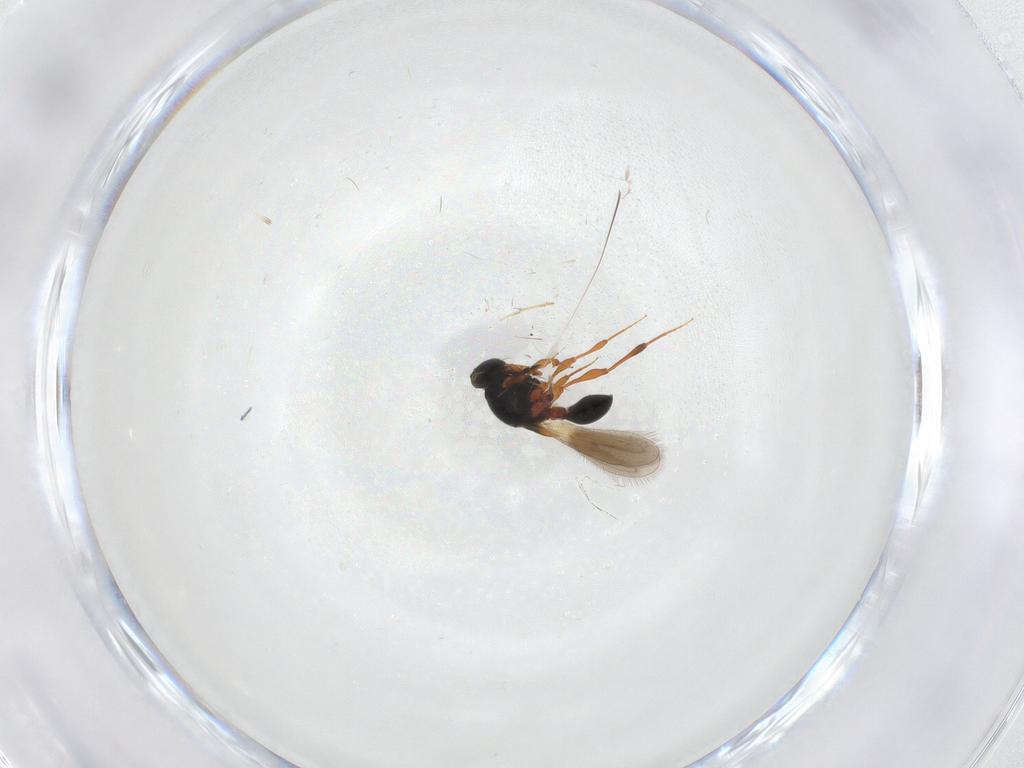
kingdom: Animalia
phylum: Arthropoda
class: Insecta
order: Hymenoptera
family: Platygastridae
